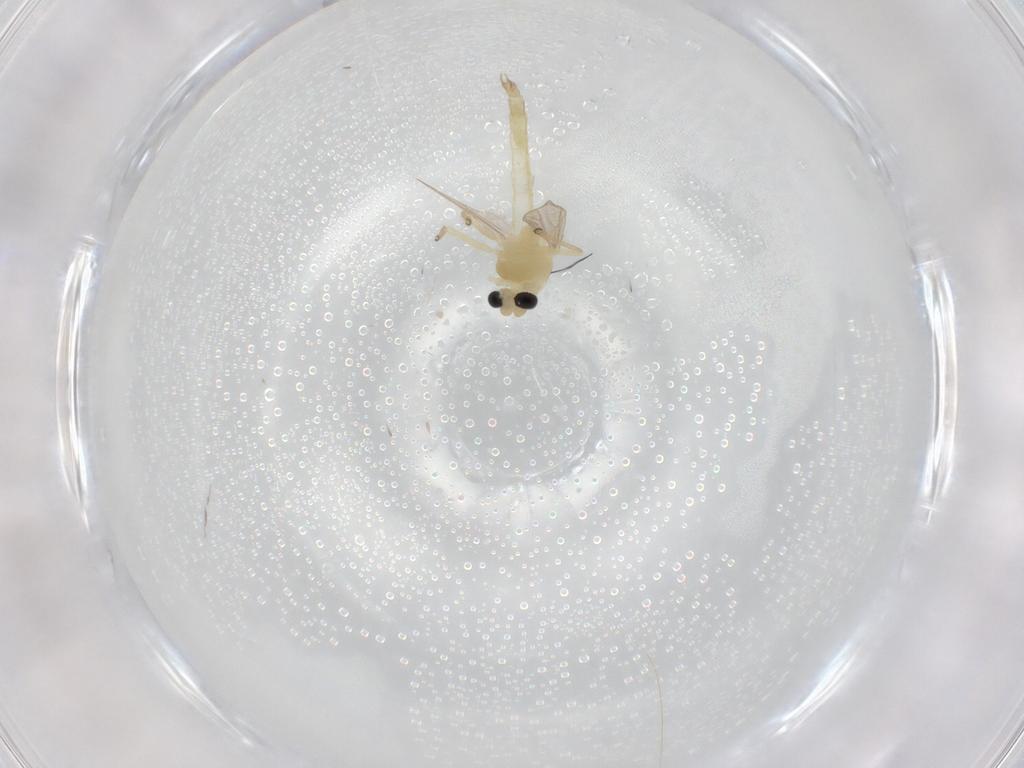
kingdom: Animalia
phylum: Arthropoda
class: Insecta
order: Diptera
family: Chironomidae
